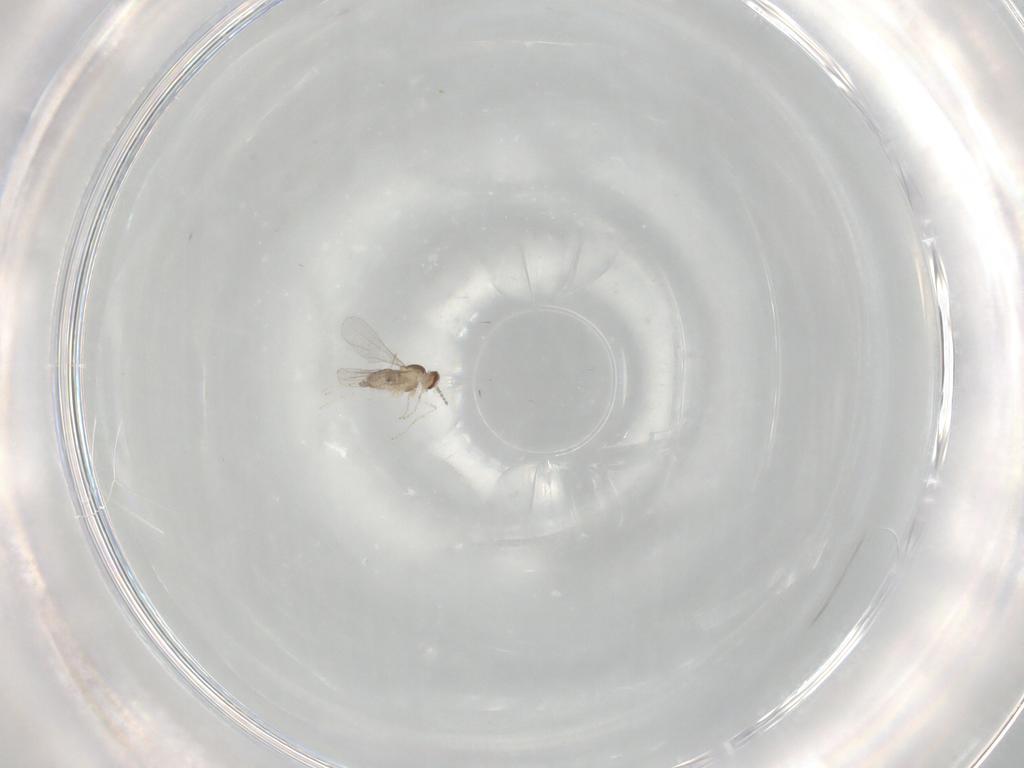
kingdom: Animalia
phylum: Arthropoda
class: Insecta
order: Diptera
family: Cecidomyiidae
